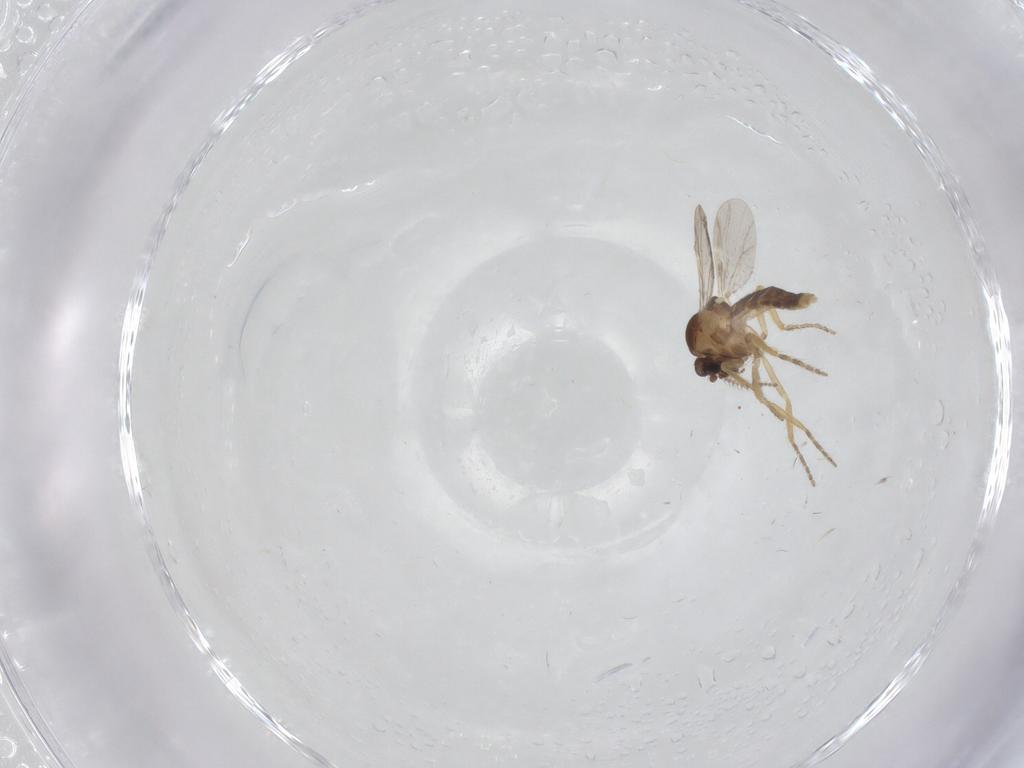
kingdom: Animalia
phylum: Arthropoda
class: Insecta
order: Diptera
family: Ceratopogonidae
